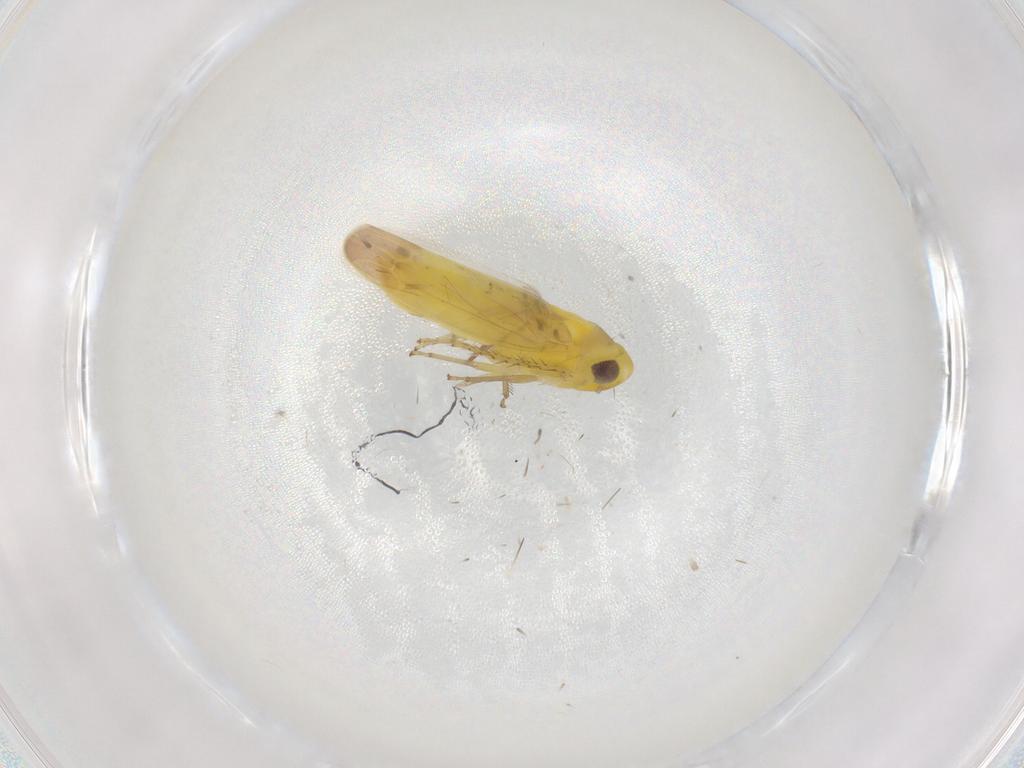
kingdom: Animalia
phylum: Arthropoda
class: Insecta
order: Hemiptera
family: Aphididae
